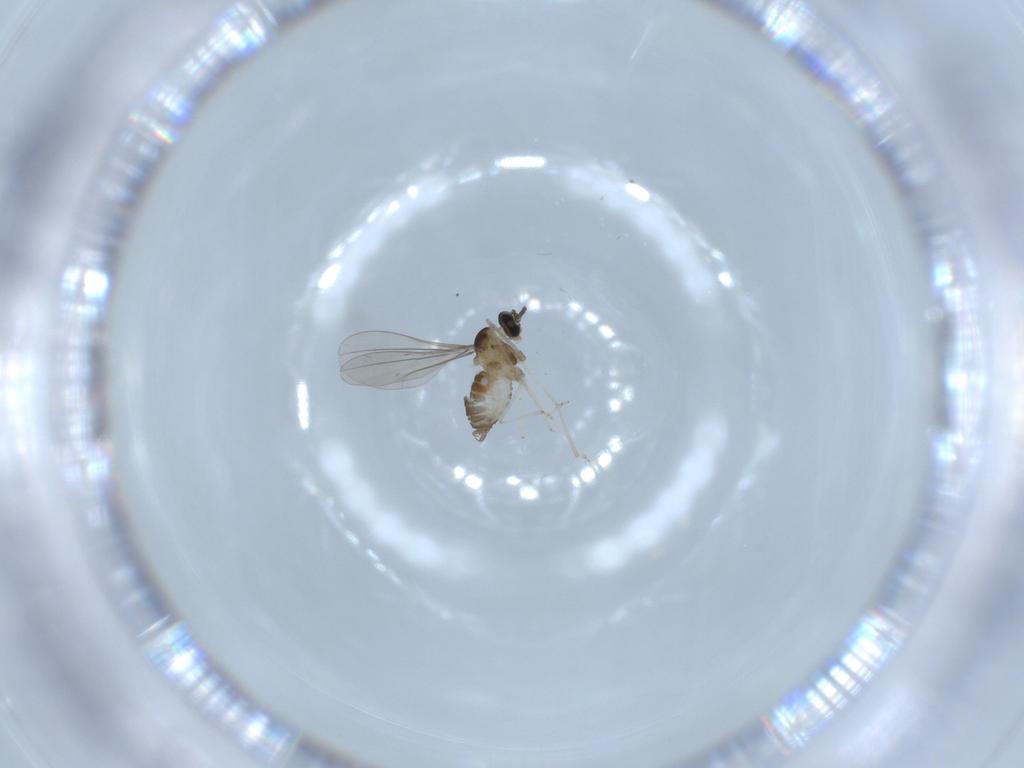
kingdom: Animalia
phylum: Arthropoda
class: Insecta
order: Diptera
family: Cecidomyiidae
